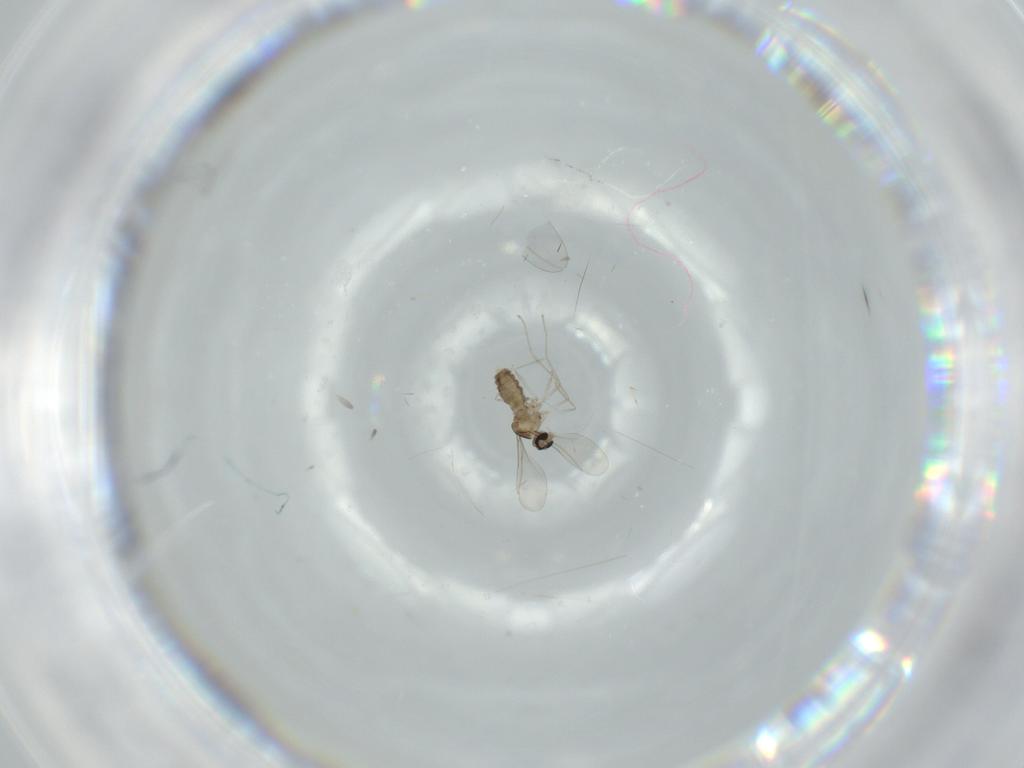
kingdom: Animalia
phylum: Arthropoda
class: Insecta
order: Diptera
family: Cecidomyiidae
